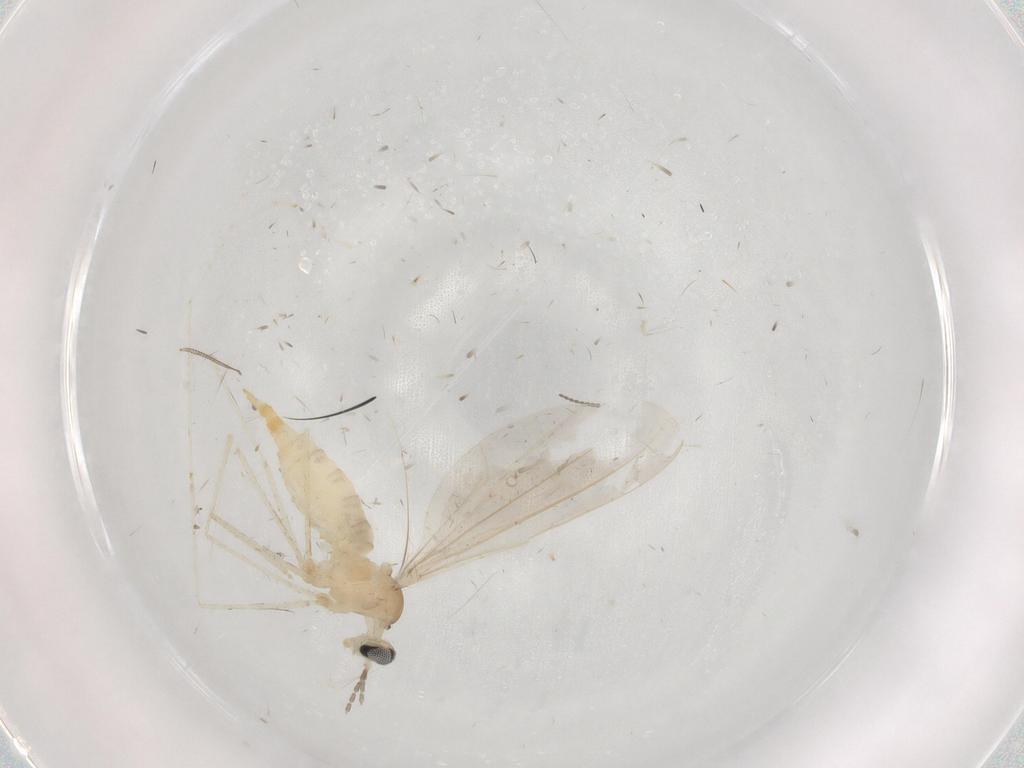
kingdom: Animalia
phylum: Arthropoda
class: Insecta
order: Diptera
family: Cecidomyiidae
